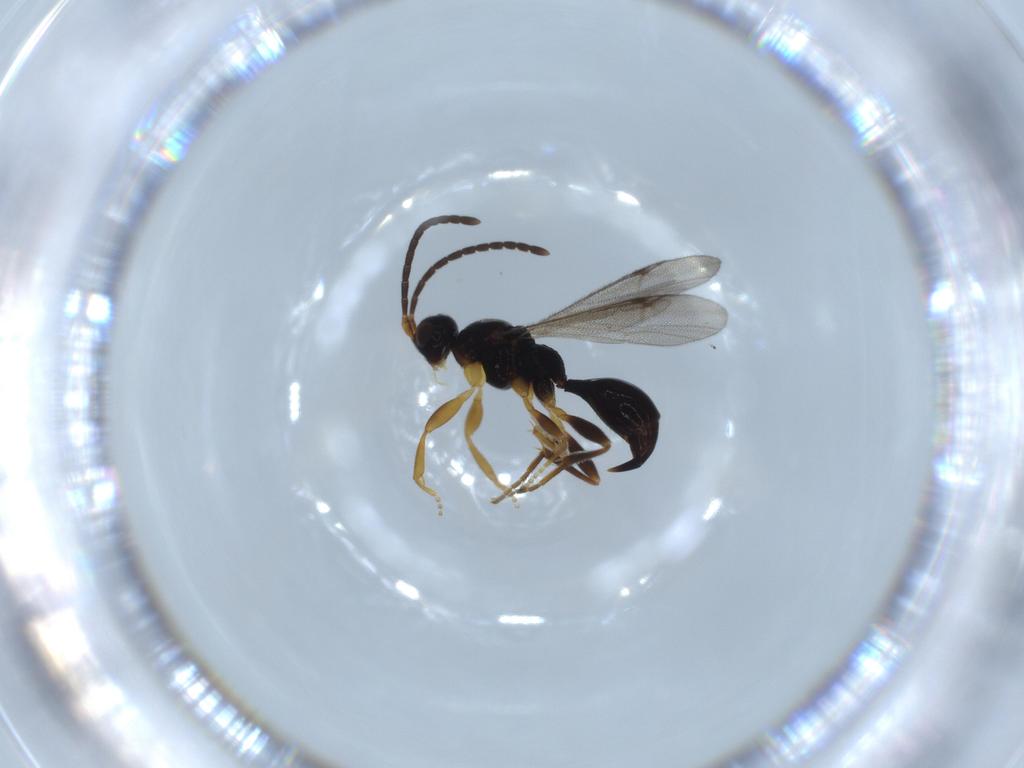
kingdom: Animalia
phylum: Arthropoda
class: Insecta
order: Hymenoptera
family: Proctotrupidae
